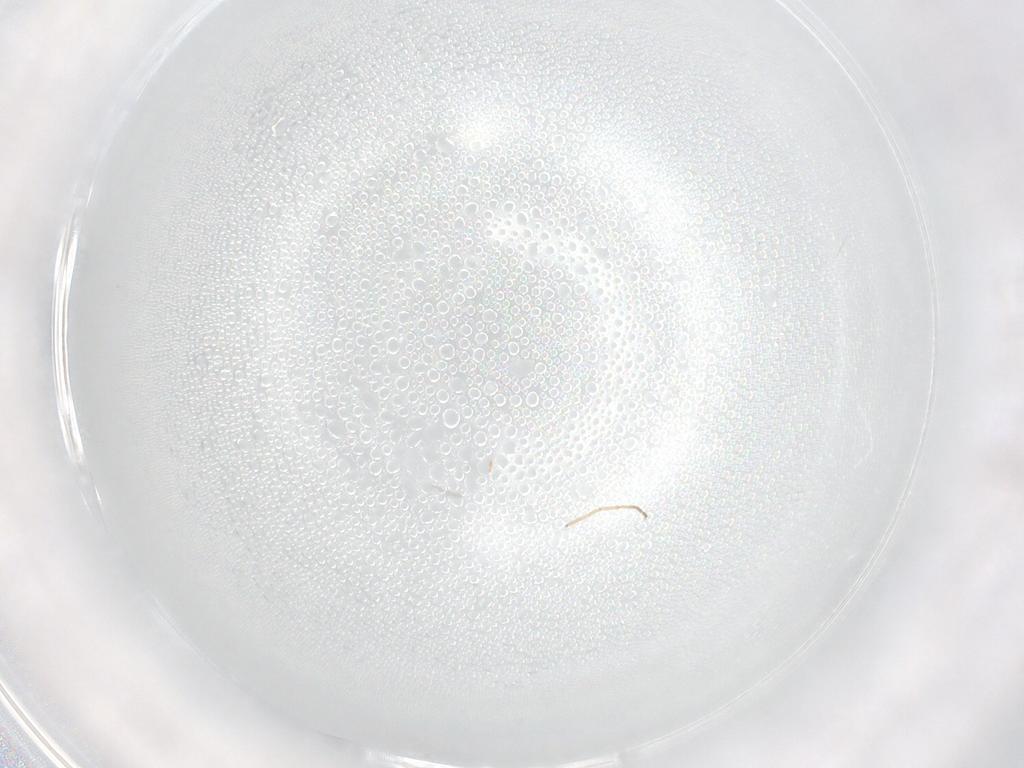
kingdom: Animalia
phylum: Arthropoda
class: Insecta
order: Diptera
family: Sphaeroceridae
